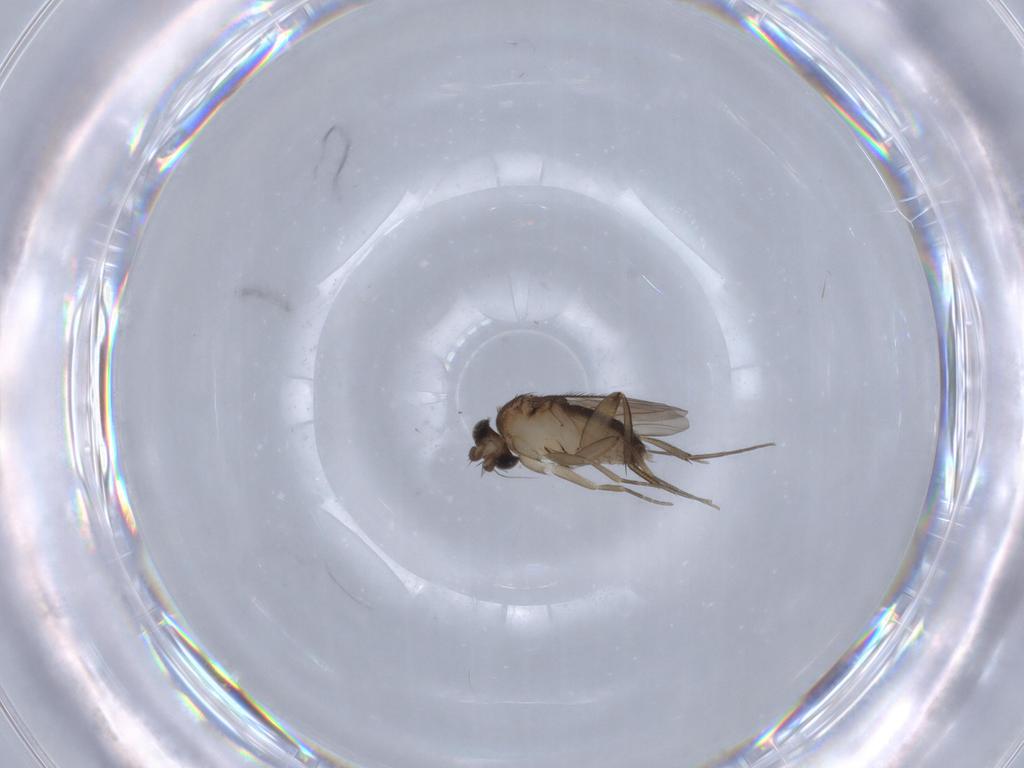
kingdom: Animalia
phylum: Arthropoda
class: Insecta
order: Diptera
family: Phoridae
